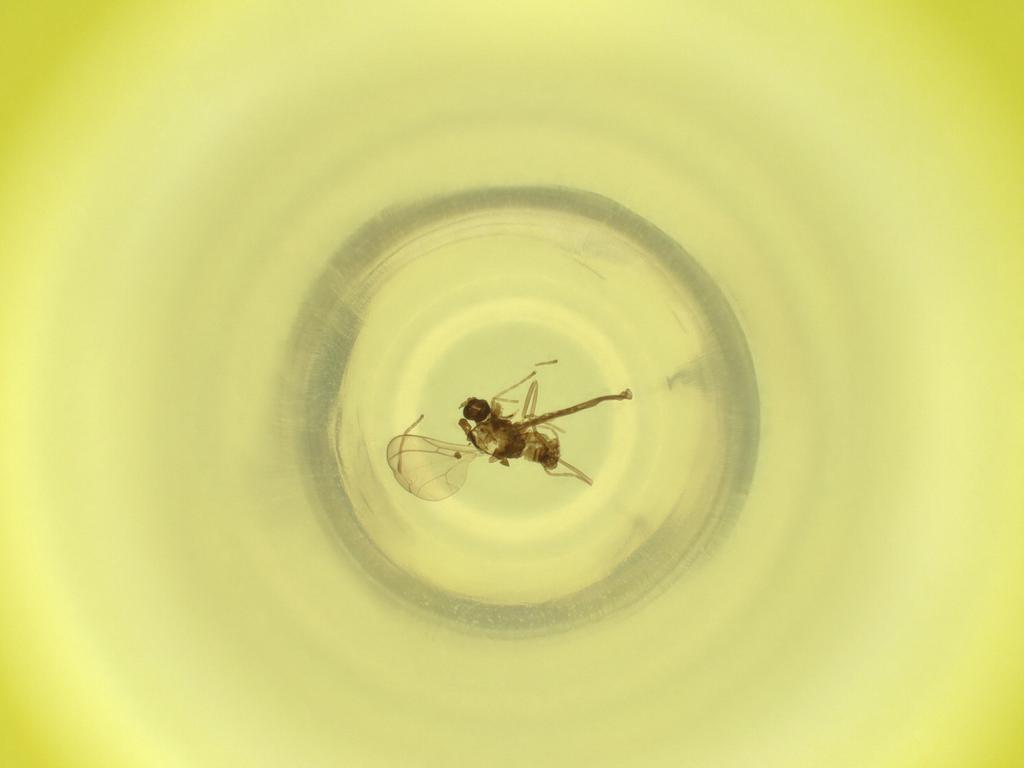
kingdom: Animalia
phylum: Arthropoda
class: Insecta
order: Diptera
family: Cecidomyiidae
